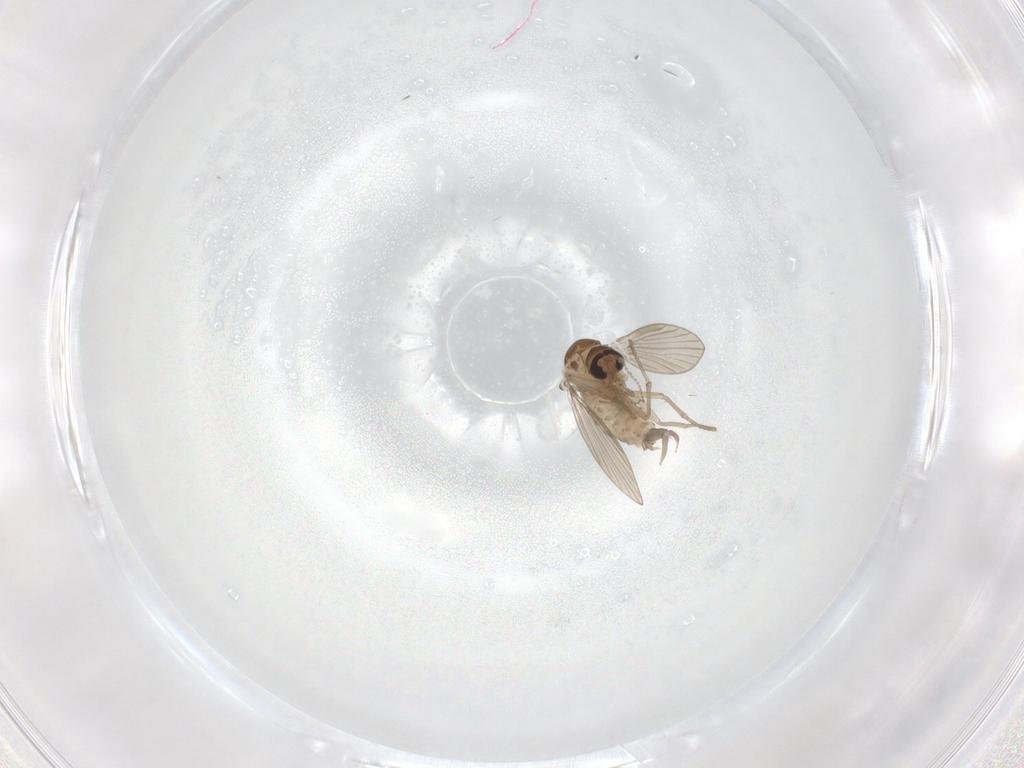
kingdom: Animalia
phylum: Arthropoda
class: Insecta
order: Diptera
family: Psychodidae
